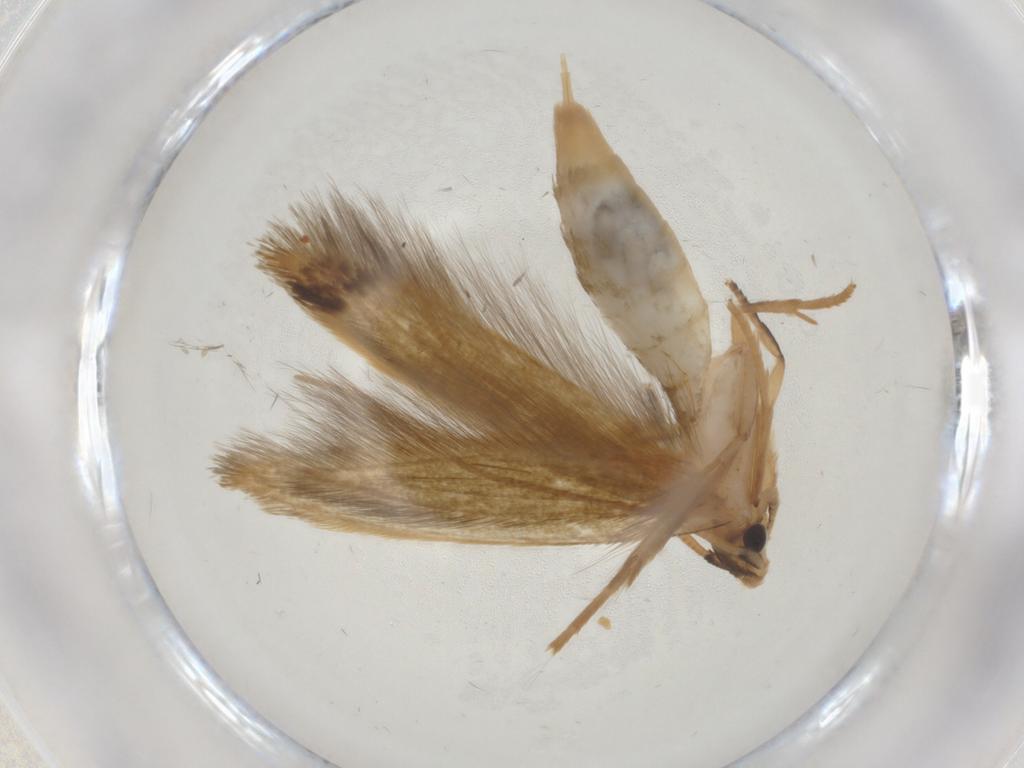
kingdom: Animalia
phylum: Arthropoda
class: Insecta
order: Lepidoptera
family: Cosmopterigidae
